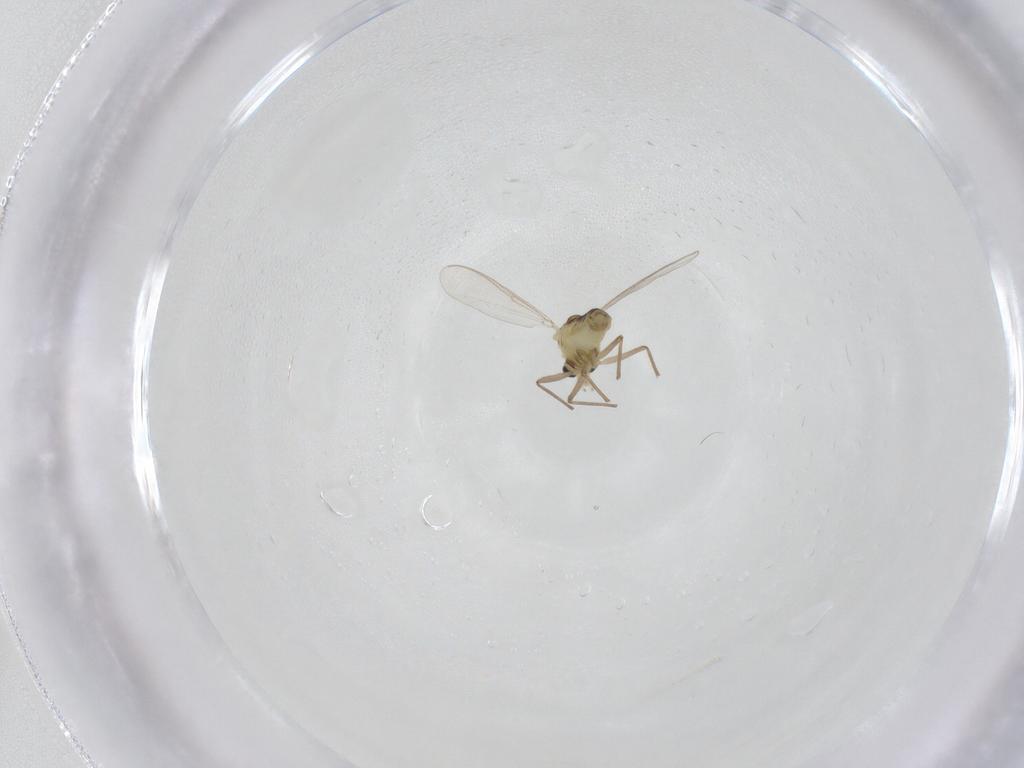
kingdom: Animalia
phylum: Arthropoda
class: Insecta
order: Diptera
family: Chironomidae
